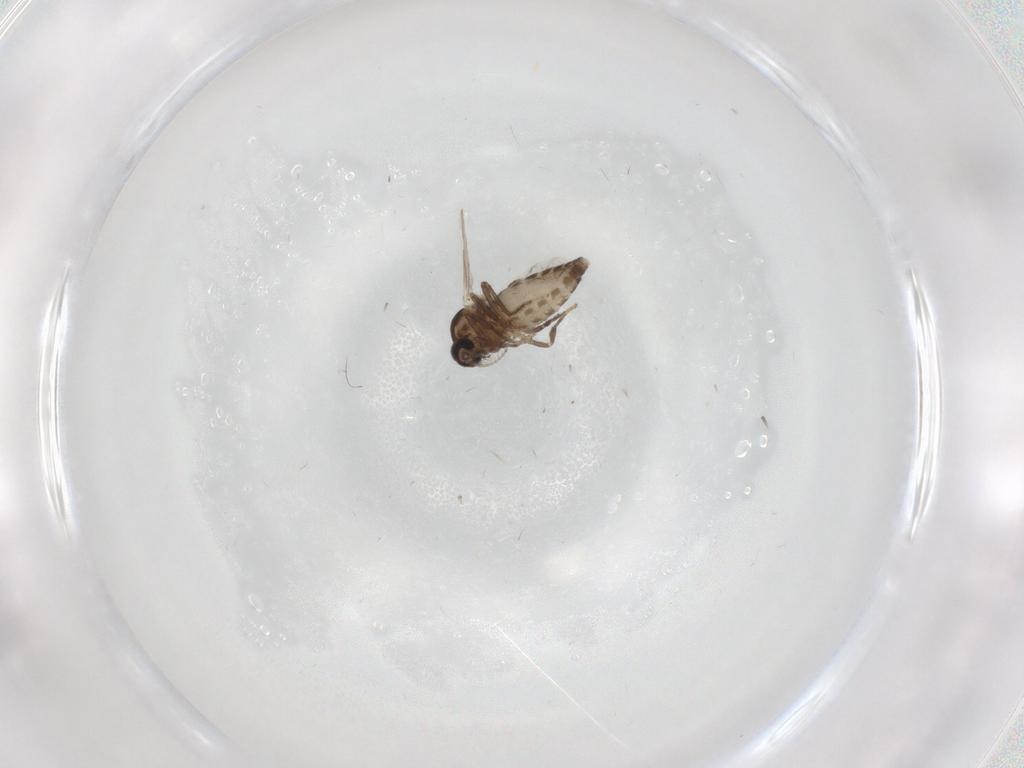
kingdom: Animalia
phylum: Arthropoda
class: Insecta
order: Diptera
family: Ceratopogonidae
